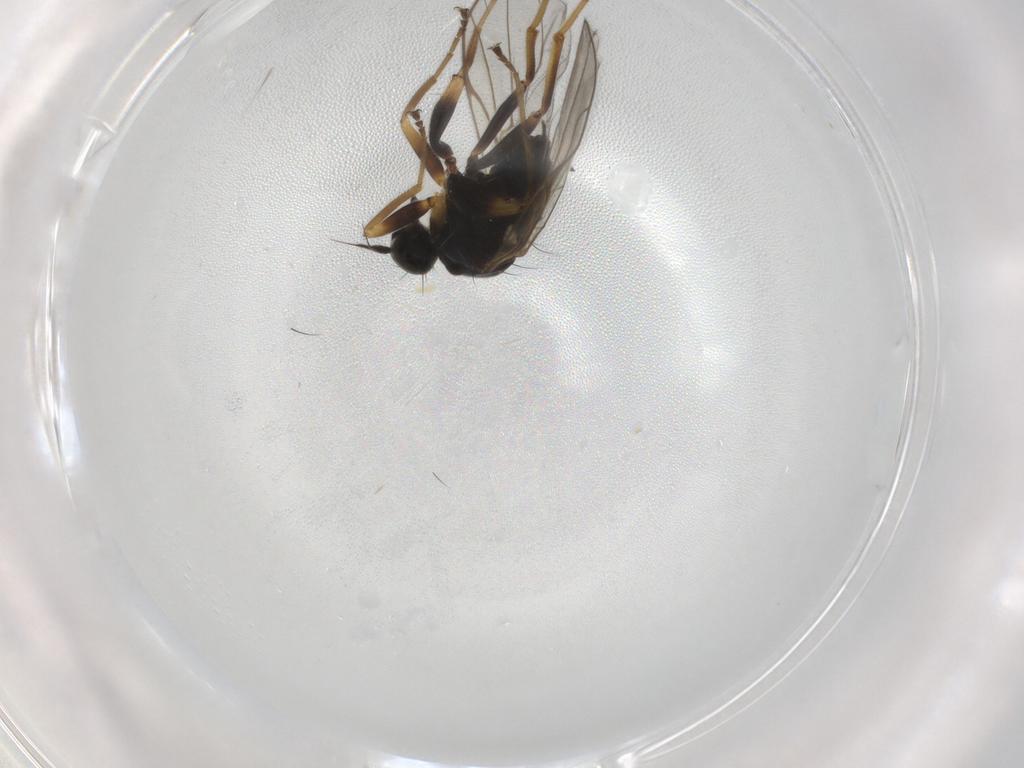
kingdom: Animalia
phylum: Arthropoda
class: Insecta
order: Diptera
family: Hybotidae
